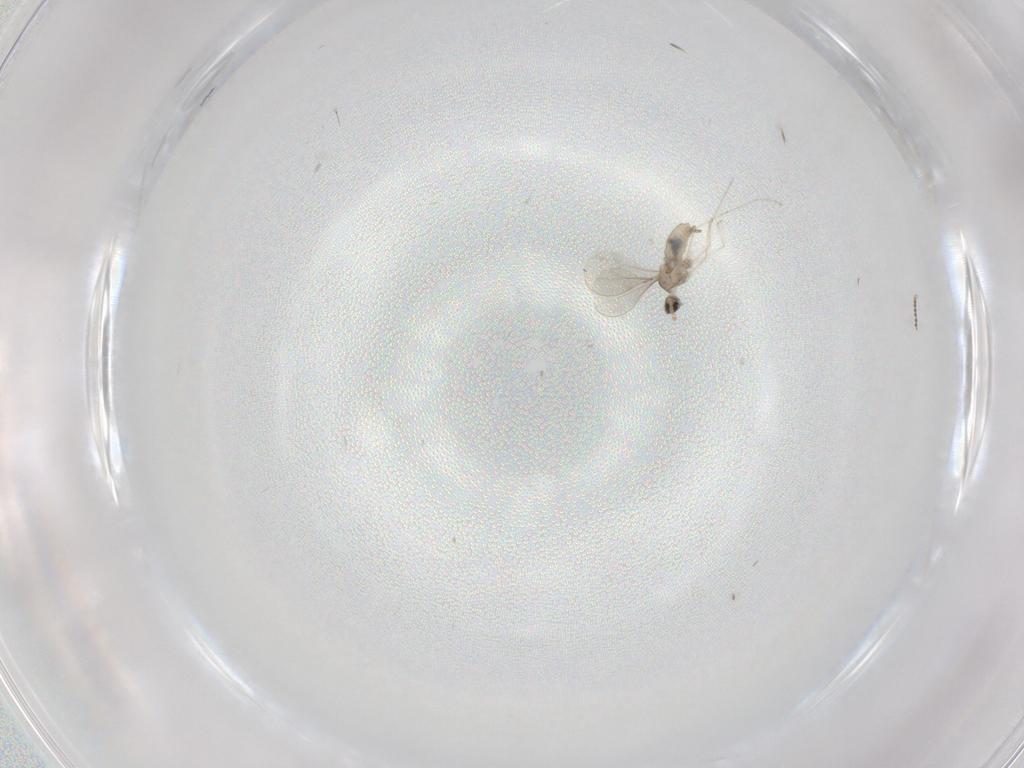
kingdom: Animalia
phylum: Arthropoda
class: Insecta
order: Diptera
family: Cecidomyiidae
